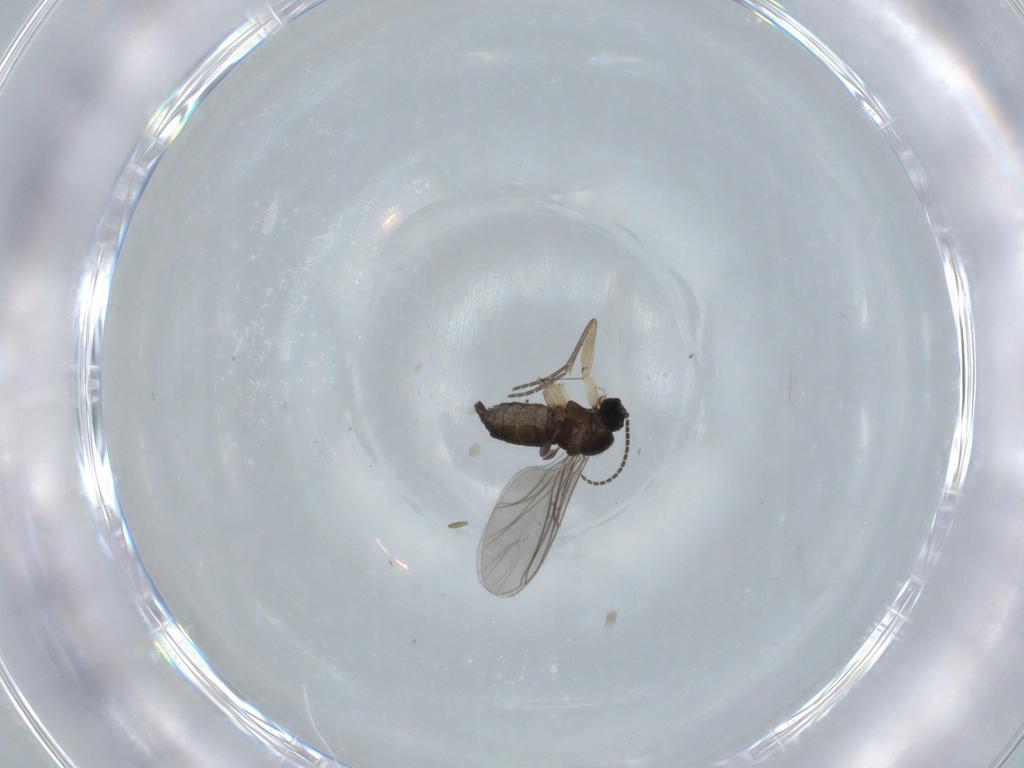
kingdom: Animalia
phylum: Arthropoda
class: Insecta
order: Diptera
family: Sciaridae
